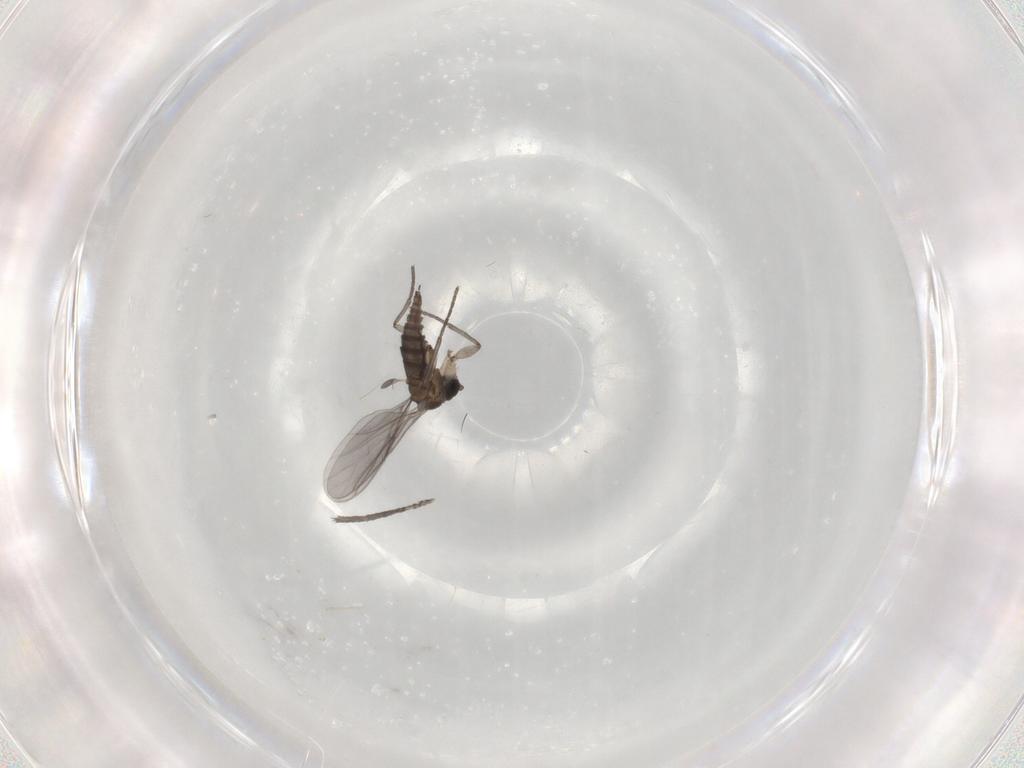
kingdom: Animalia
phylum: Arthropoda
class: Insecta
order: Diptera
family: Sciaridae
